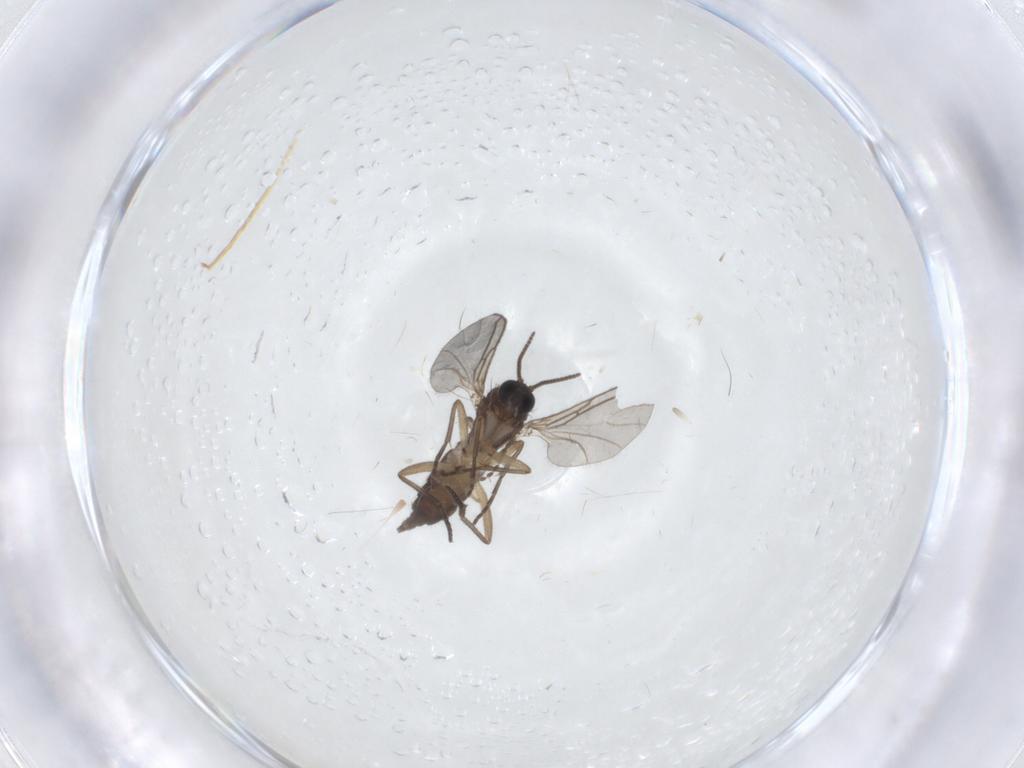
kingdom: Animalia
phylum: Arthropoda
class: Insecta
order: Diptera
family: Sciaridae
